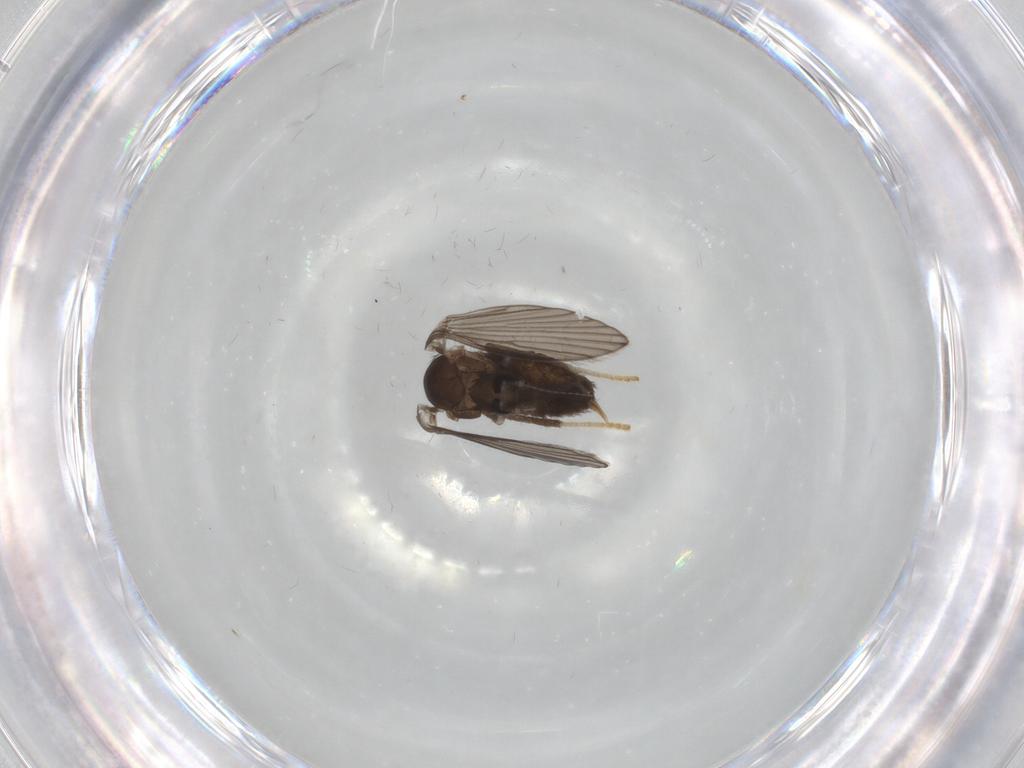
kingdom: Animalia
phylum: Arthropoda
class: Insecta
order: Diptera
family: Psychodidae
